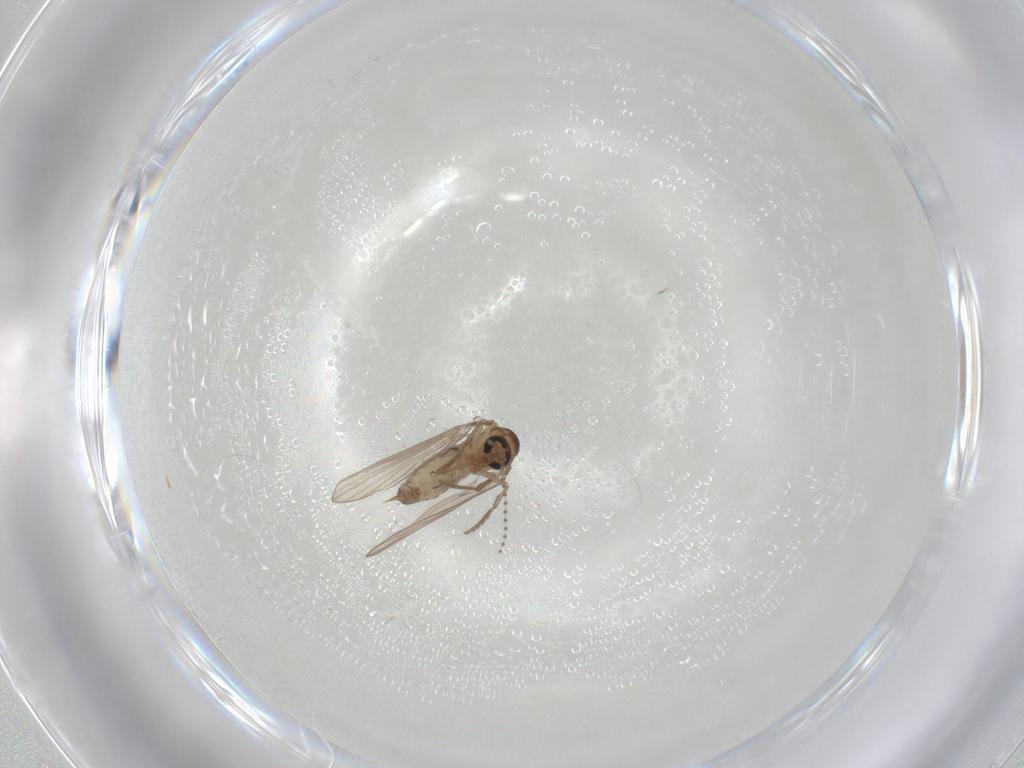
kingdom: Animalia
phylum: Arthropoda
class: Insecta
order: Diptera
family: Psychodidae
